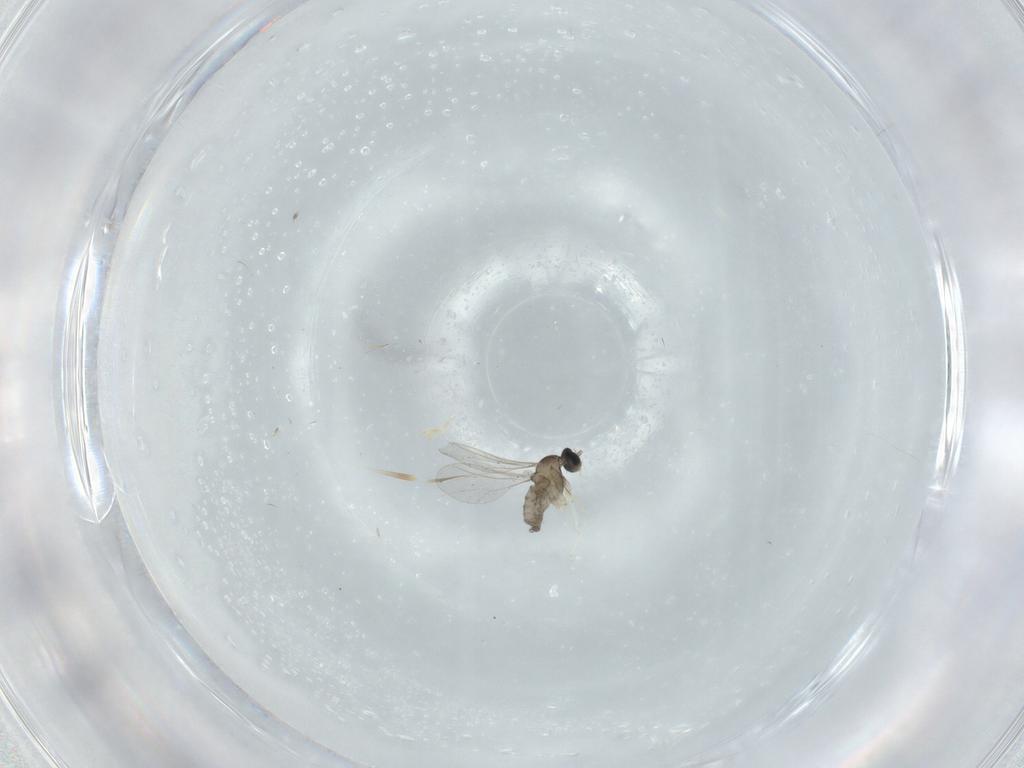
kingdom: Animalia
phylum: Arthropoda
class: Insecta
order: Diptera
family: Cecidomyiidae
